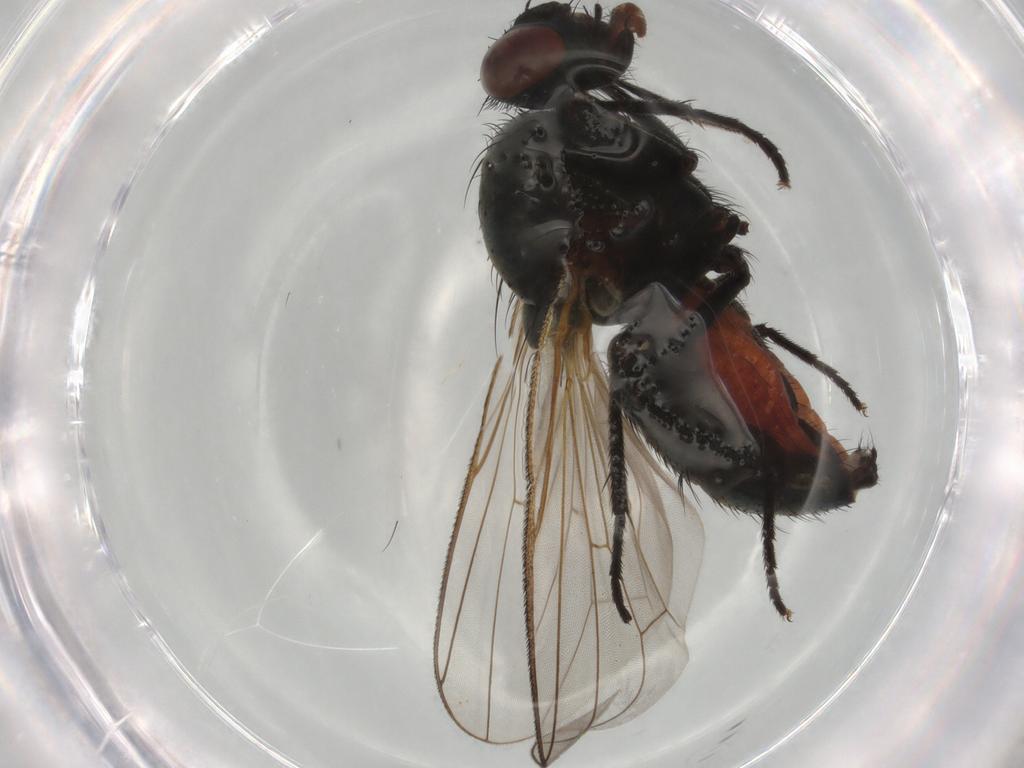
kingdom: Animalia
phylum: Arthropoda
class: Insecta
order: Diptera
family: Anthomyiidae
